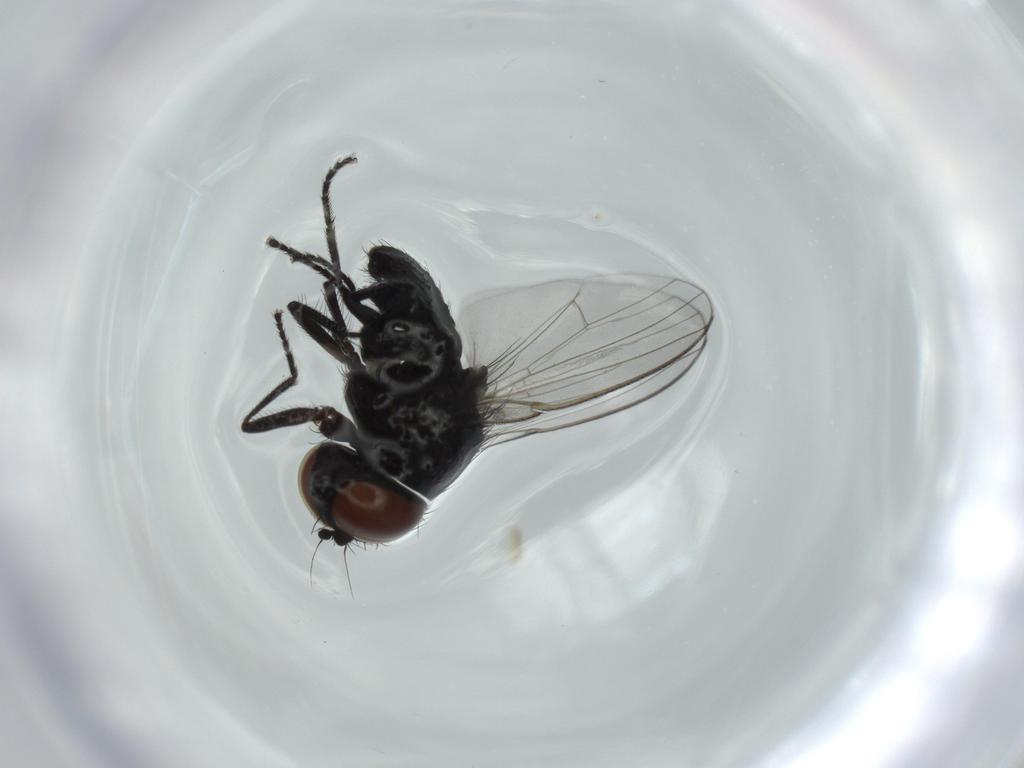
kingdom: Animalia
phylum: Arthropoda
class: Insecta
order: Diptera
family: Milichiidae
